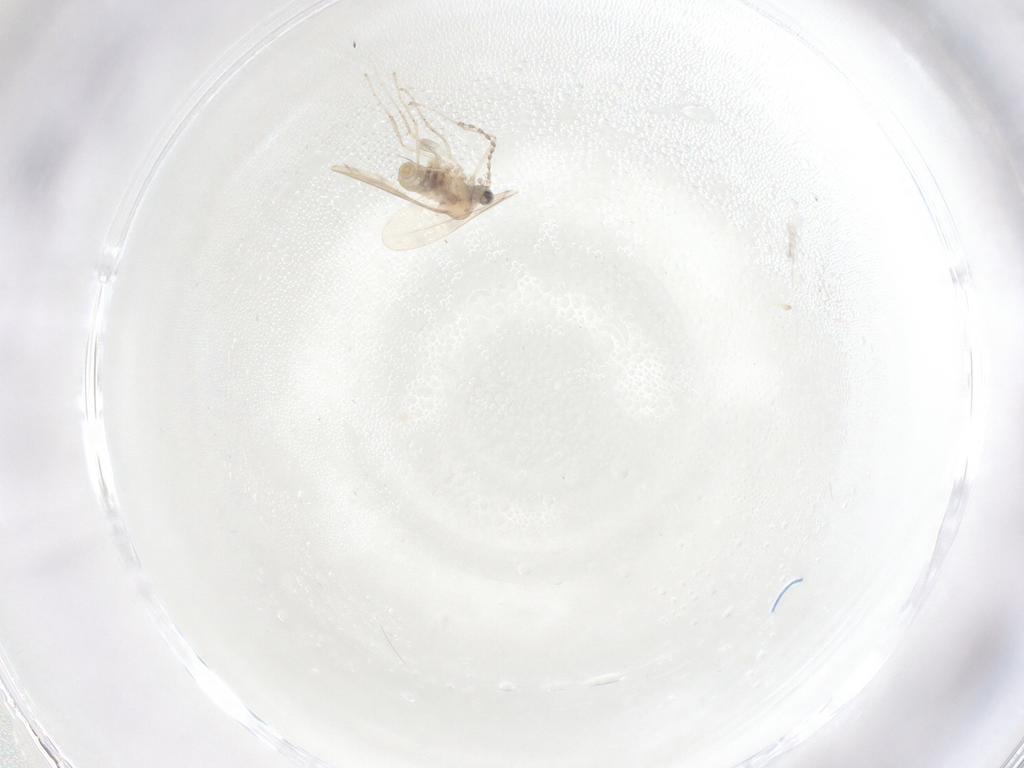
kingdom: Animalia
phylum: Arthropoda
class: Insecta
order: Diptera
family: Limoniidae
